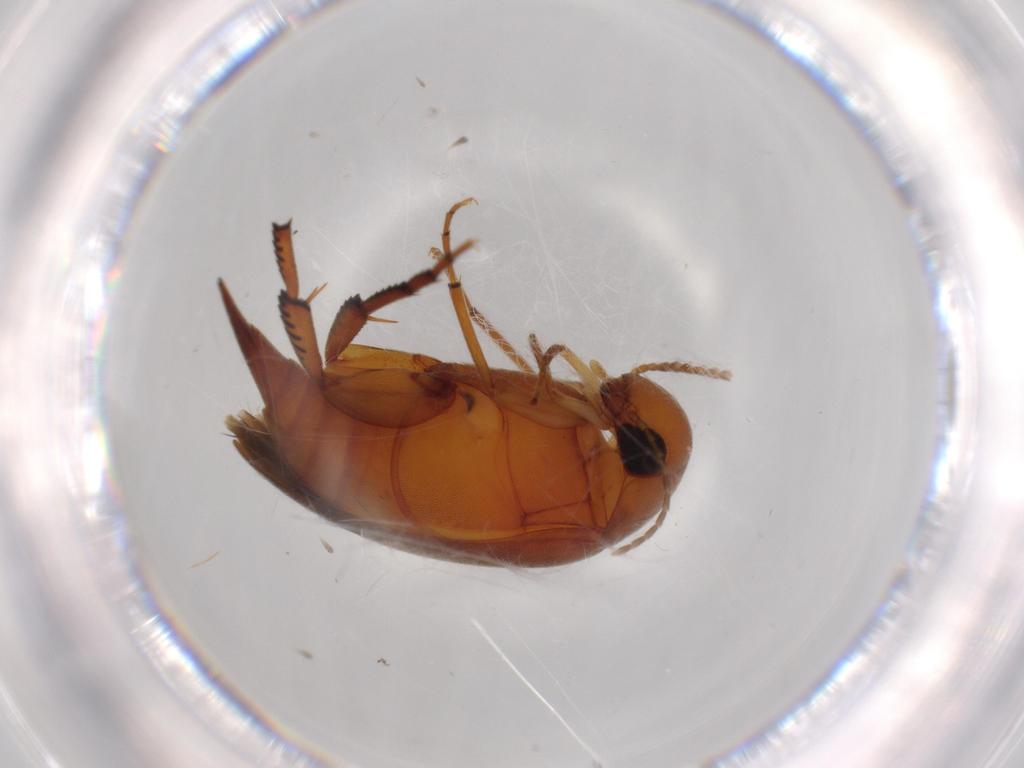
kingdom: Animalia
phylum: Arthropoda
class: Insecta
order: Coleoptera
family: Mordellidae
